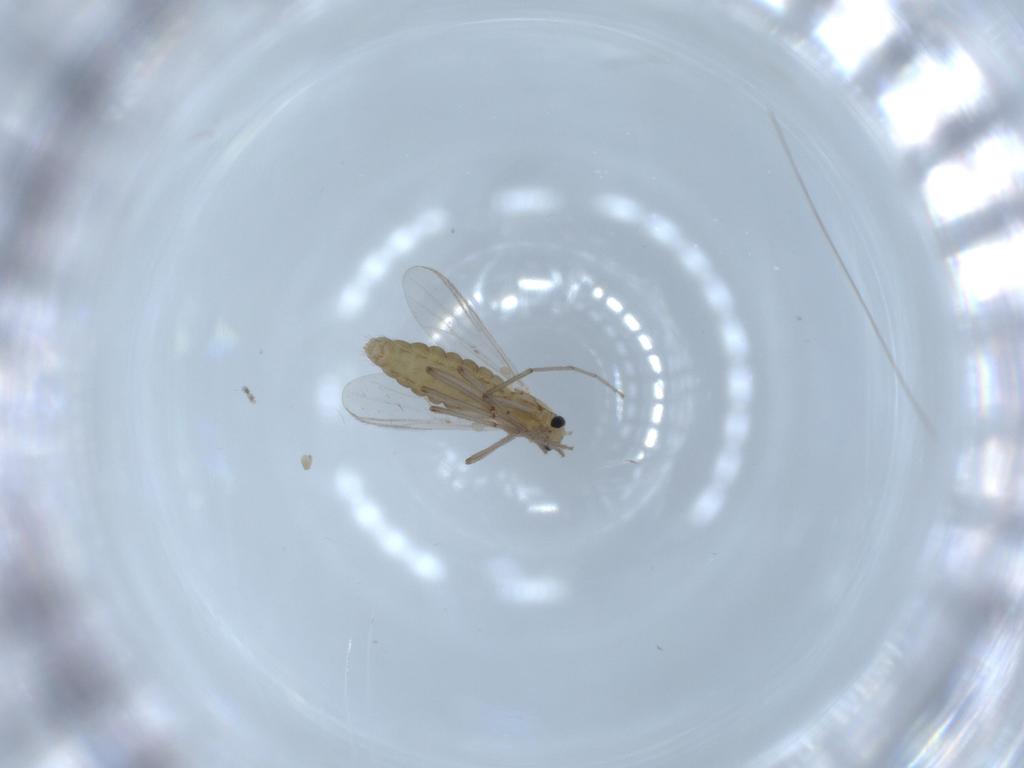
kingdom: Animalia
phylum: Arthropoda
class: Insecta
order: Diptera
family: Chironomidae
